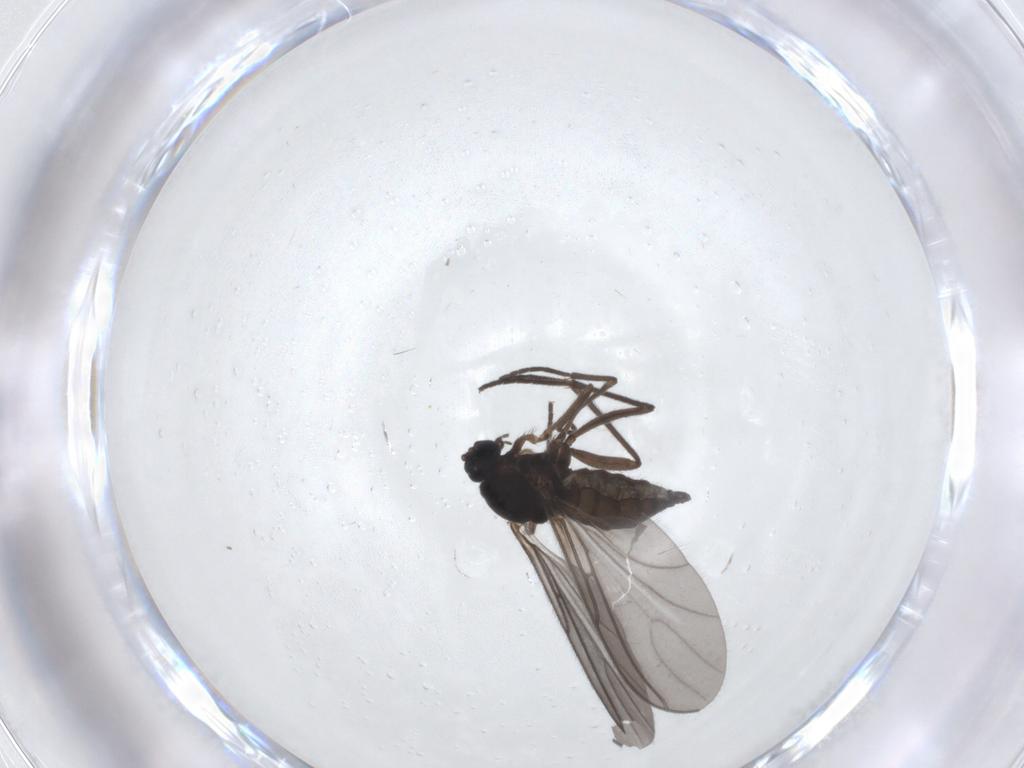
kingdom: Animalia
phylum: Arthropoda
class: Insecta
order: Diptera
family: Sciaridae
